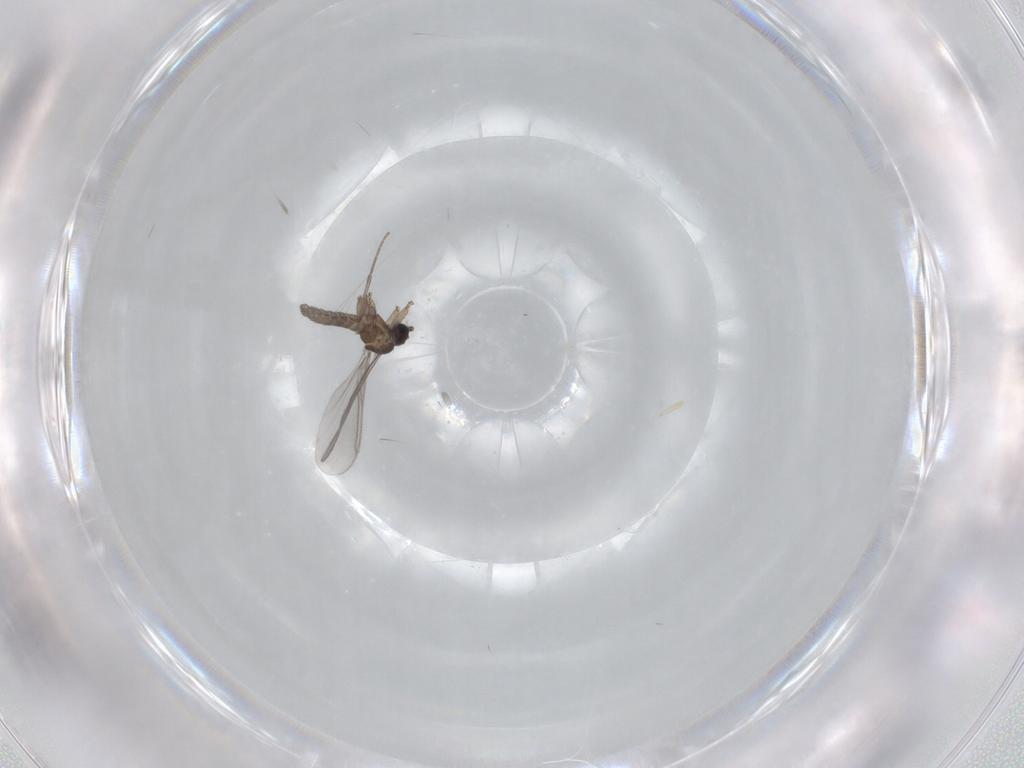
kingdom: Animalia
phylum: Arthropoda
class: Insecta
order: Diptera
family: Sciaridae
